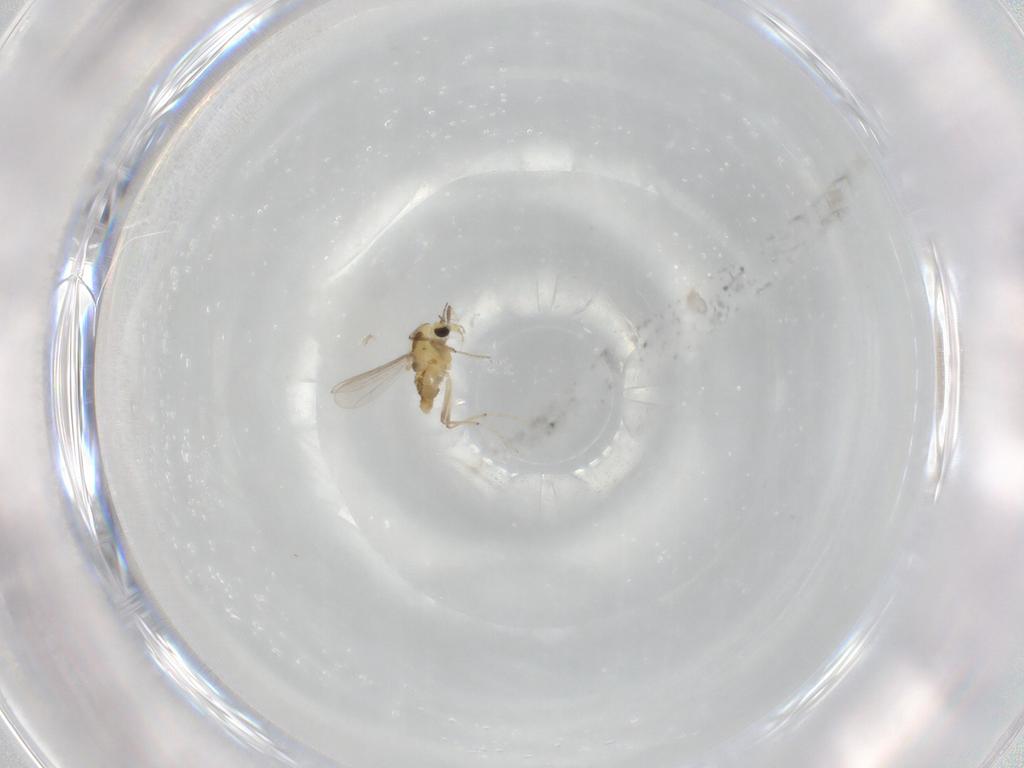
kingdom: Animalia
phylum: Arthropoda
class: Insecta
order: Diptera
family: Chironomidae
